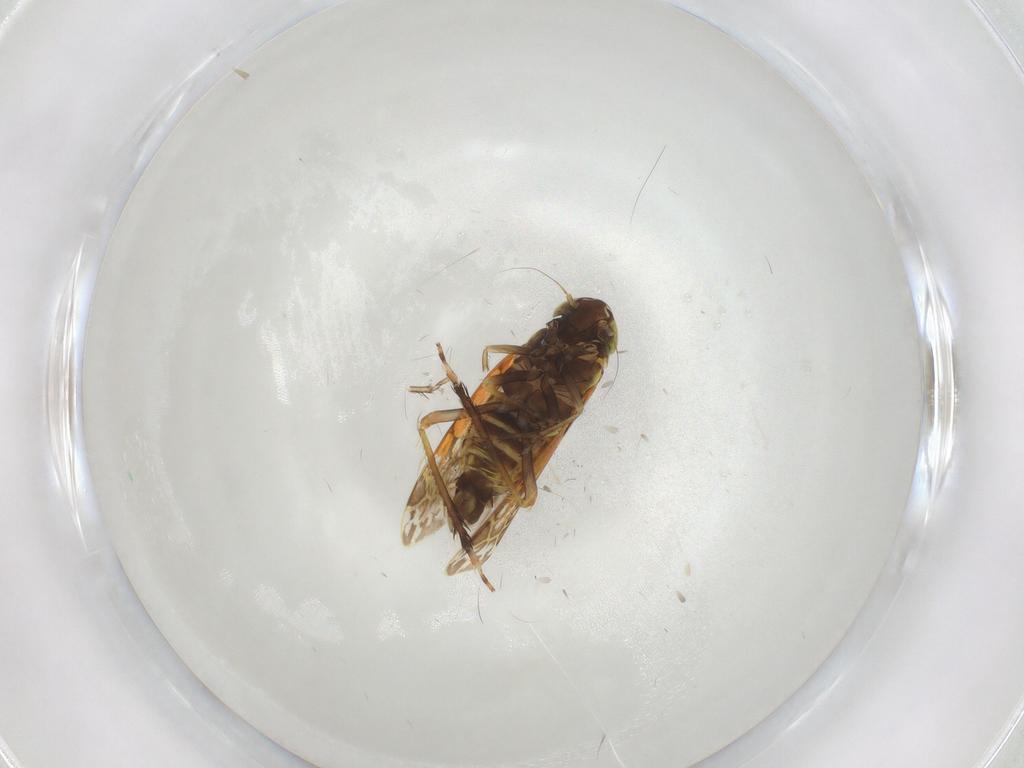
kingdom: Animalia
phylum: Arthropoda
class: Insecta
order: Hemiptera
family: Cicadellidae
